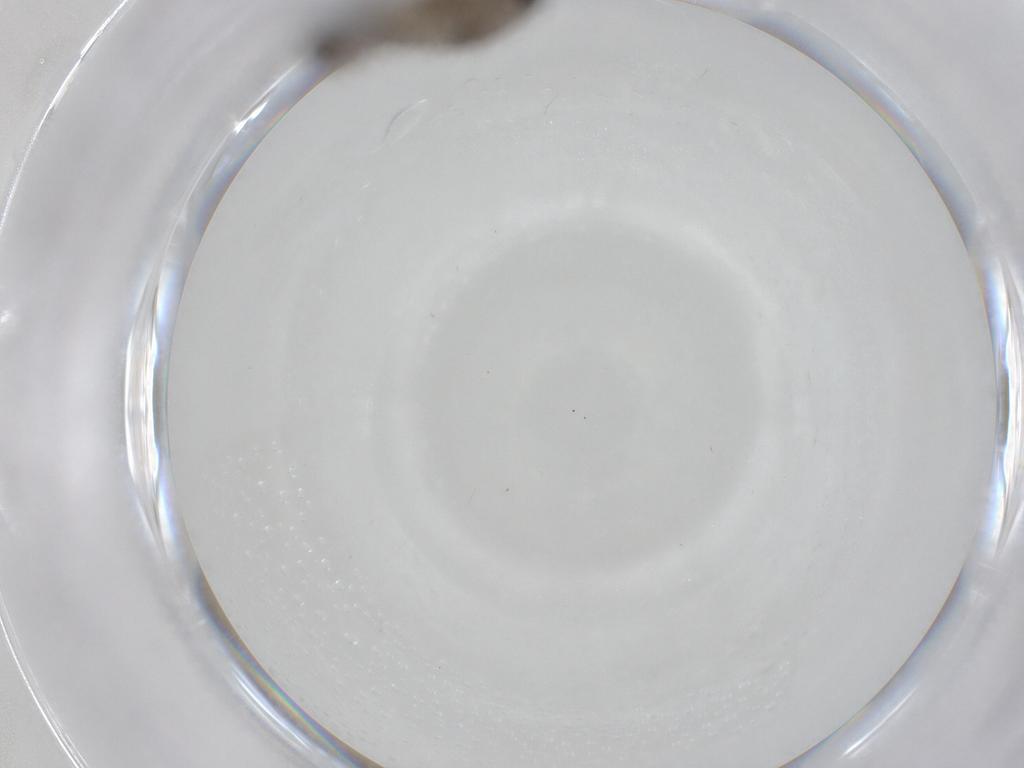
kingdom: Animalia
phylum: Arthropoda
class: Insecta
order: Diptera
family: Mycetophilidae
